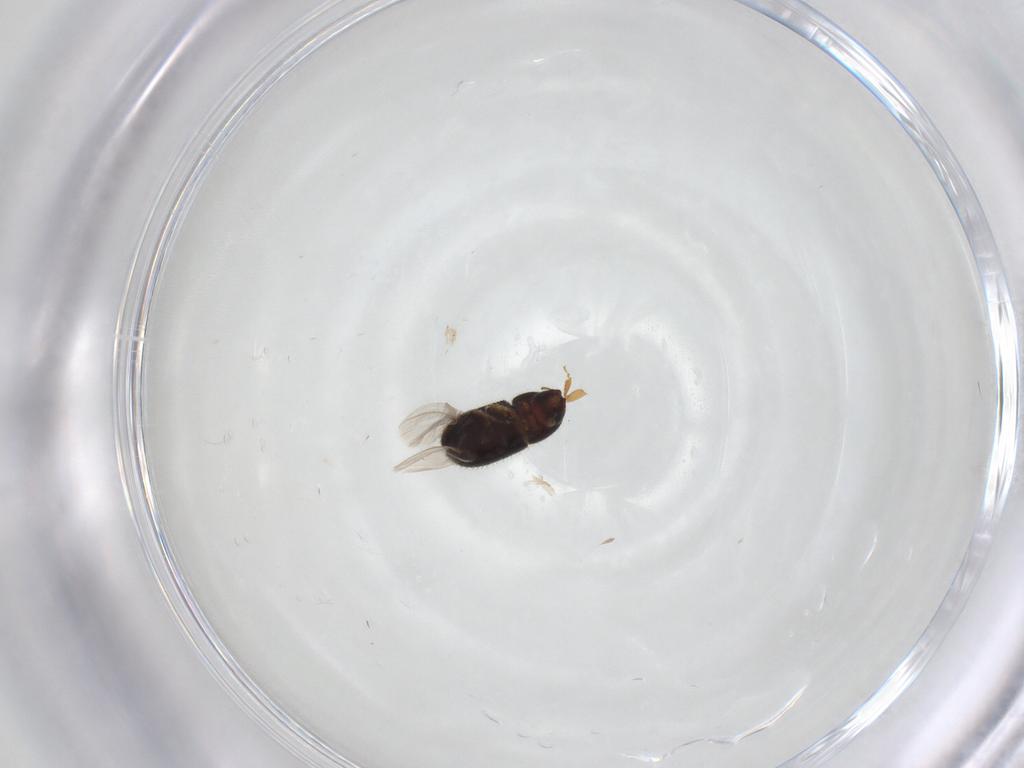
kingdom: Animalia
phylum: Arthropoda
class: Insecta
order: Coleoptera
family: Curculionidae
